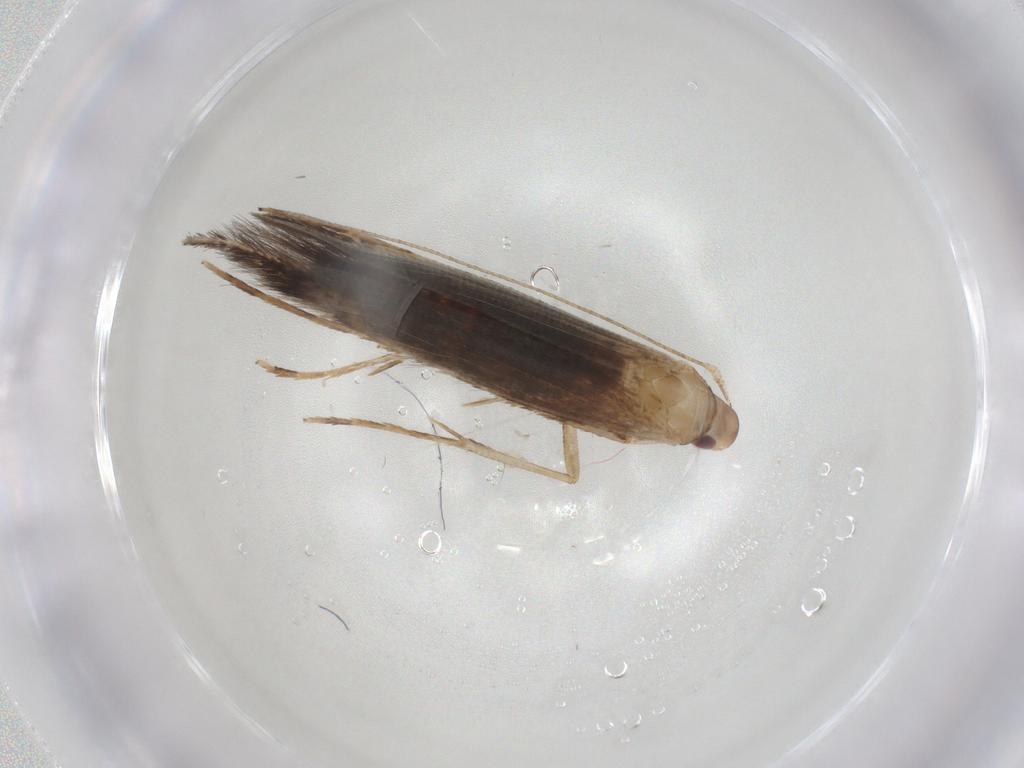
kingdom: Animalia
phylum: Arthropoda
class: Insecta
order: Lepidoptera
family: Cosmopterigidae
